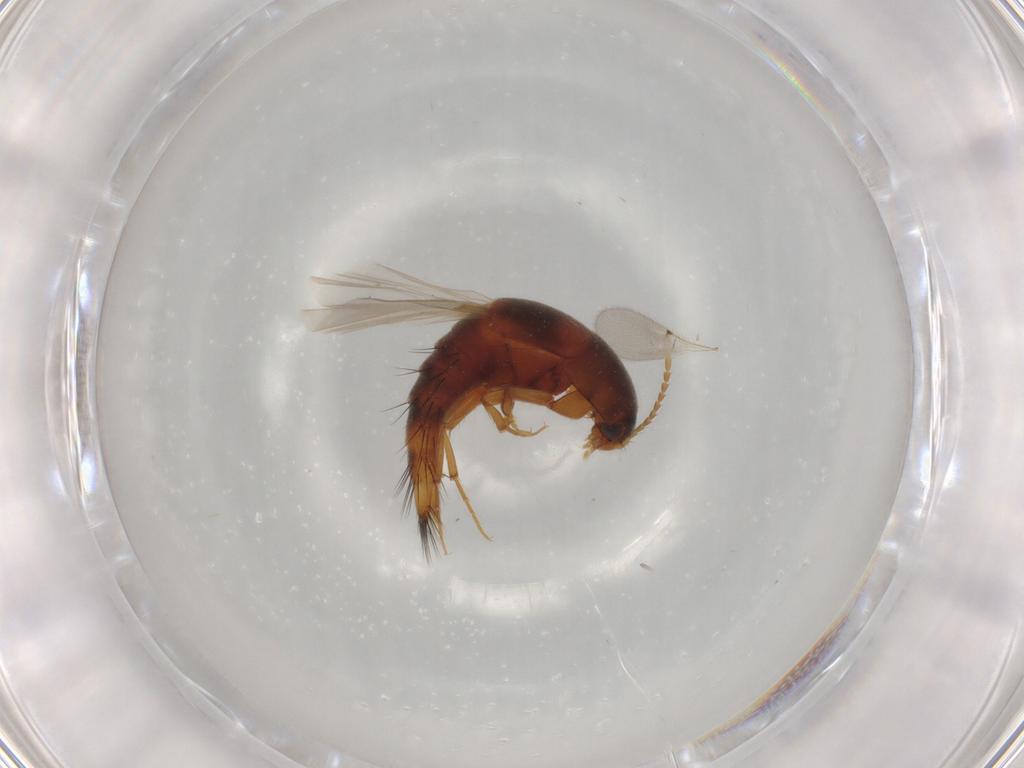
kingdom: Animalia
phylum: Arthropoda
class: Insecta
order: Coleoptera
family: Staphylinidae
